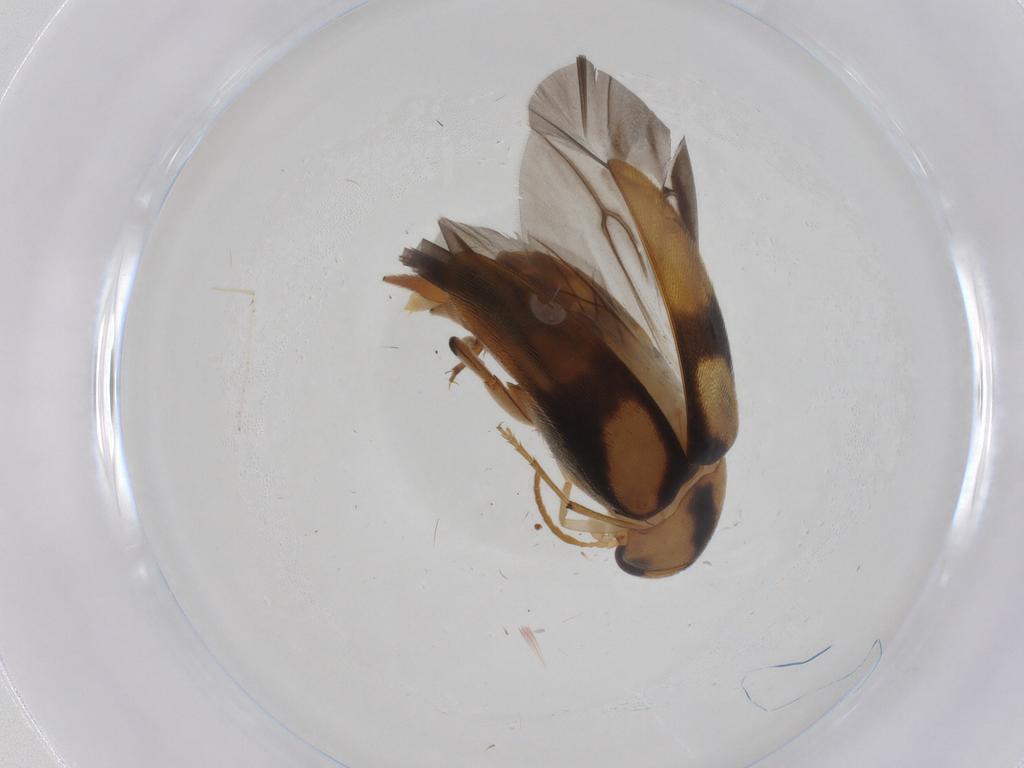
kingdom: Animalia
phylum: Arthropoda
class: Insecta
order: Coleoptera
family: Mordellidae
